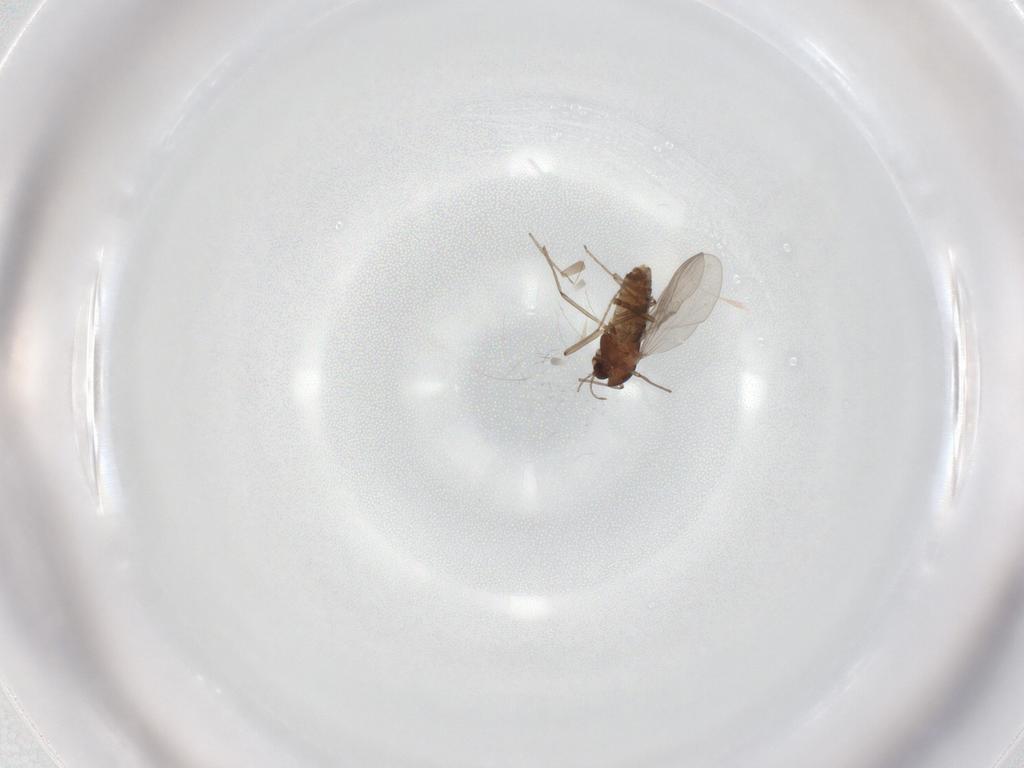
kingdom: Animalia
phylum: Arthropoda
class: Insecta
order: Diptera
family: Chironomidae
